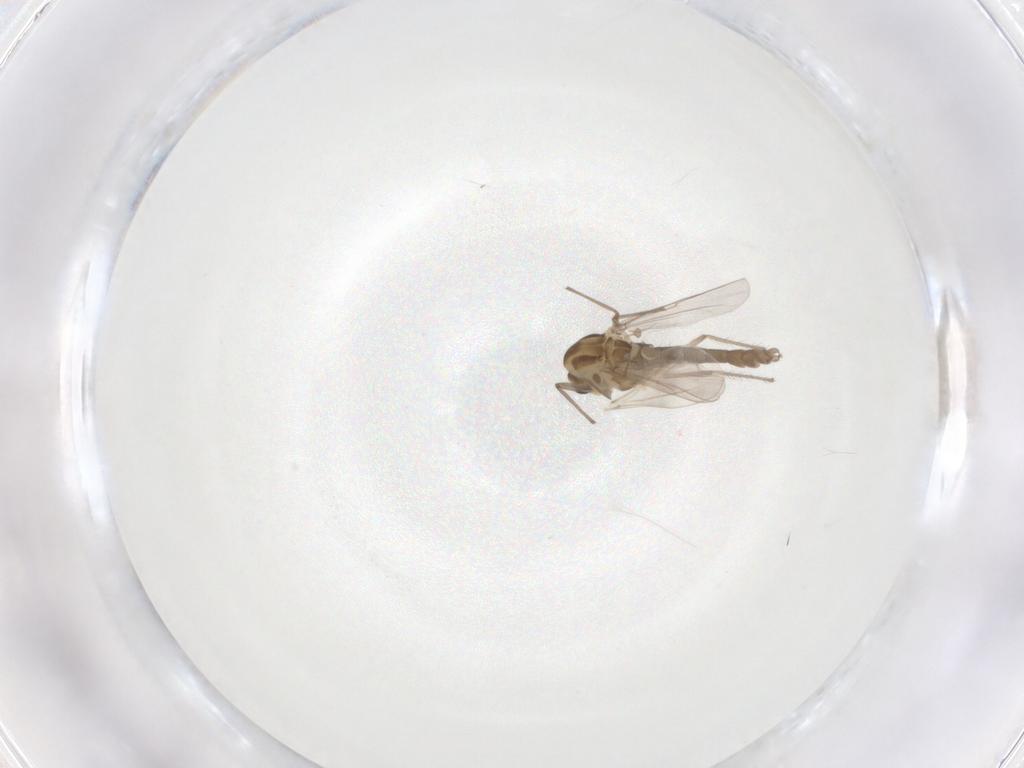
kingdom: Animalia
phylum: Arthropoda
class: Insecta
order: Diptera
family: Chironomidae
